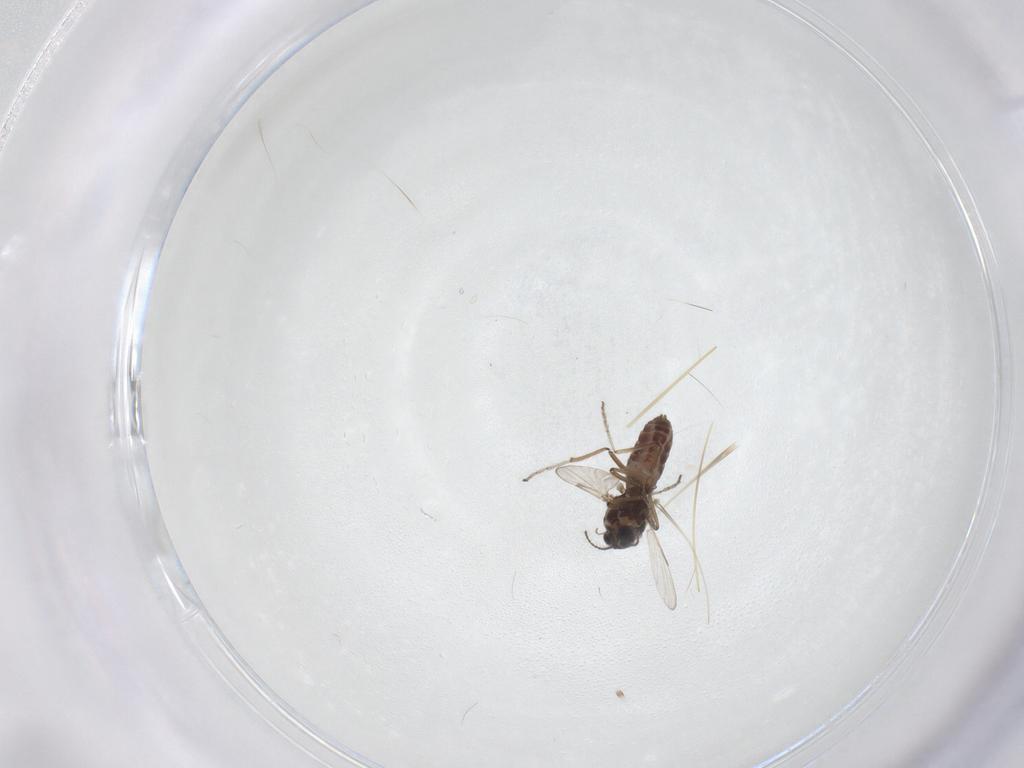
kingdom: Animalia
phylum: Arthropoda
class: Insecta
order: Diptera
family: Ceratopogonidae
